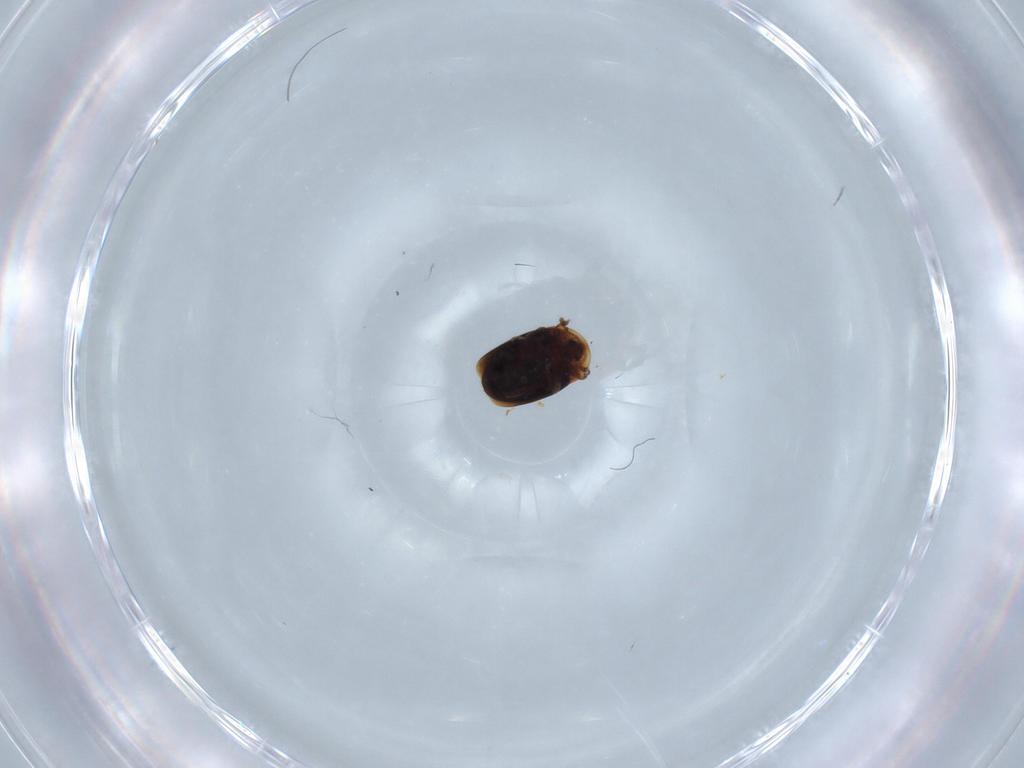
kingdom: Animalia
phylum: Arthropoda
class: Insecta
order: Coleoptera
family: Corylophidae
